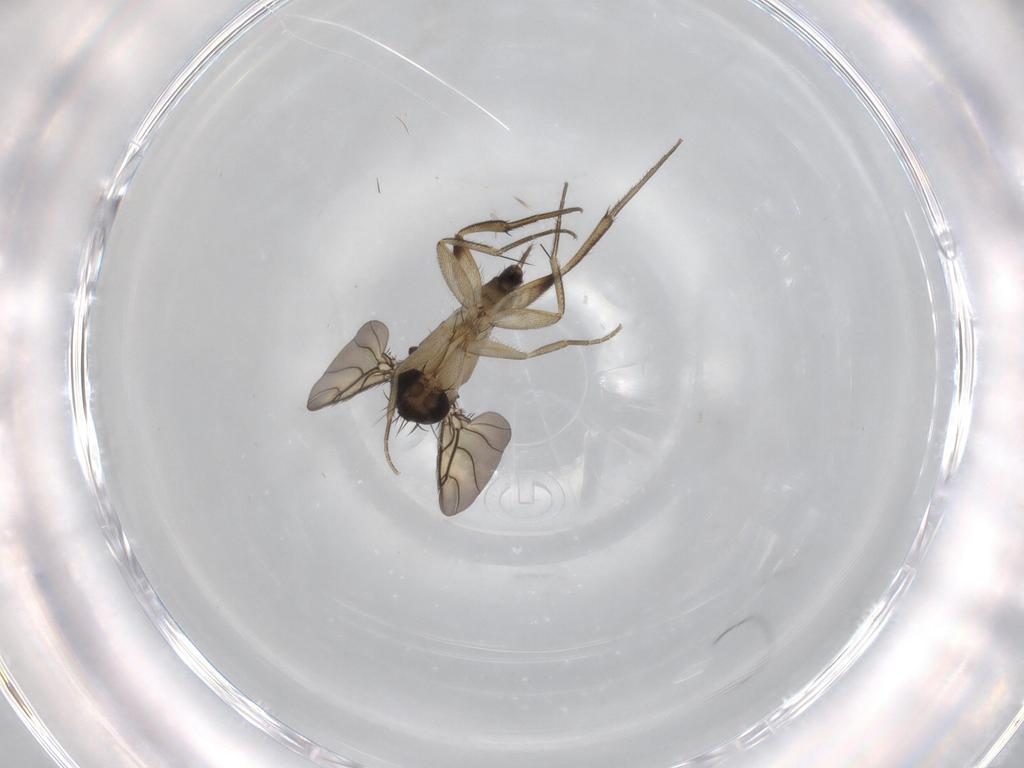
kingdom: Animalia
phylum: Arthropoda
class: Insecta
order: Diptera
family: Phoridae
